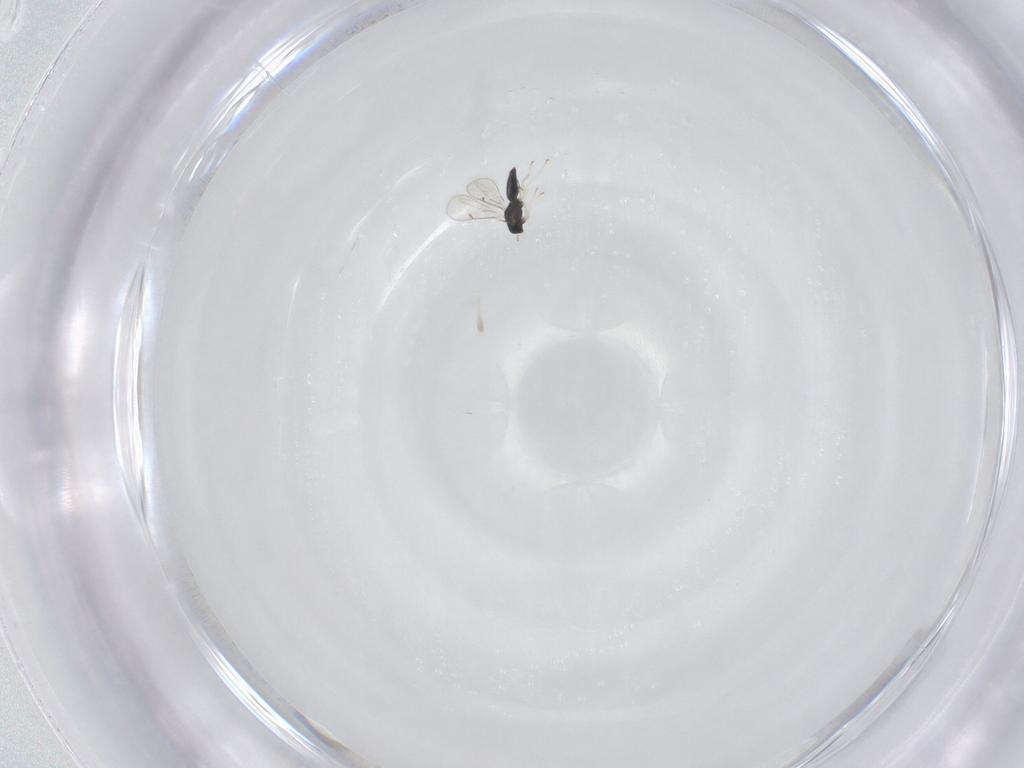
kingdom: Animalia
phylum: Arthropoda
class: Insecta
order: Hymenoptera
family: Eulophidae
